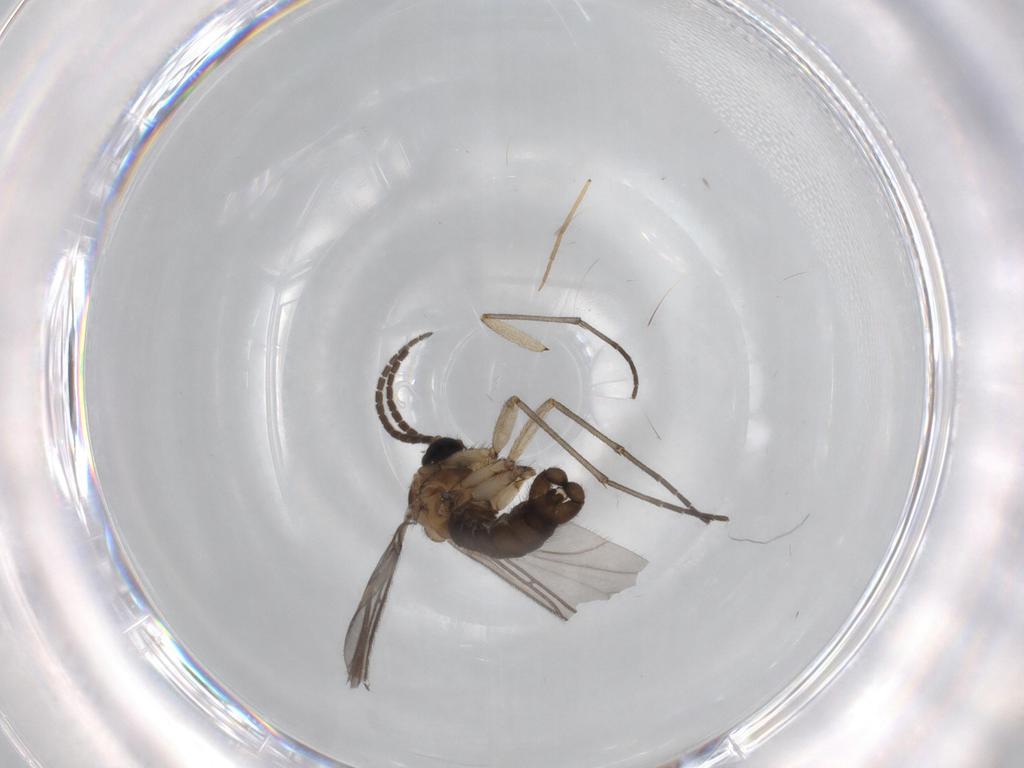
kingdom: Animalia
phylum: Arthropoda
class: Insecta
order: Diptera
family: Sciaridae
